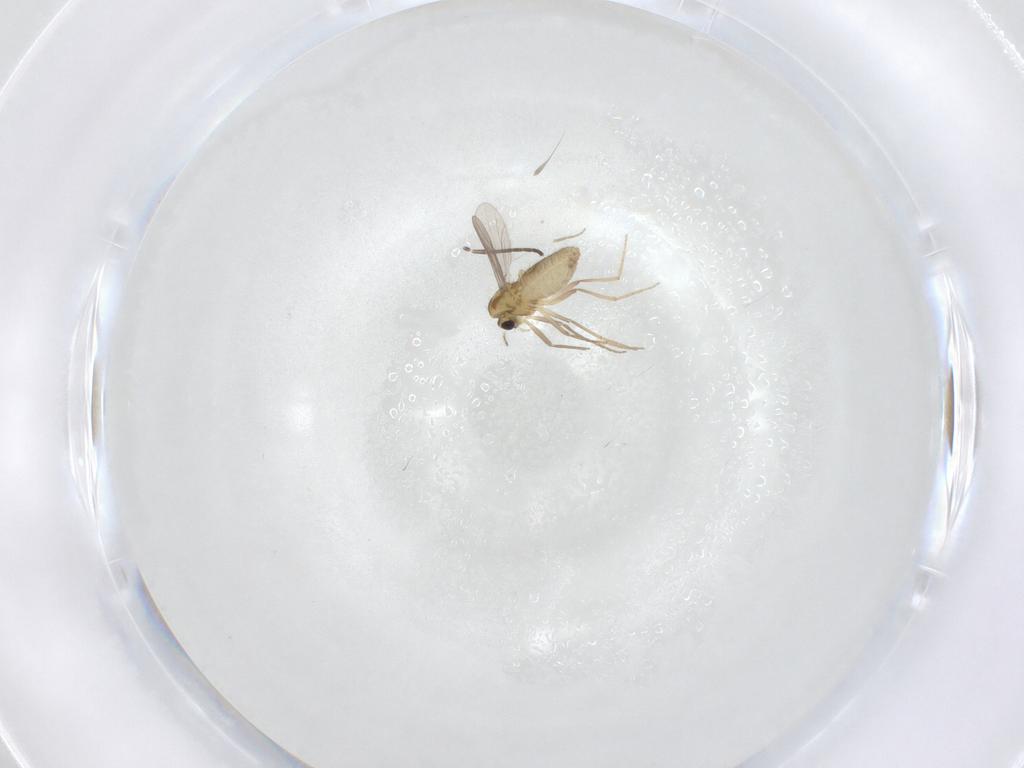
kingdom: Animalia
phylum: Arthropoda
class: Insecta
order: Diptera
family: Chironomidae
